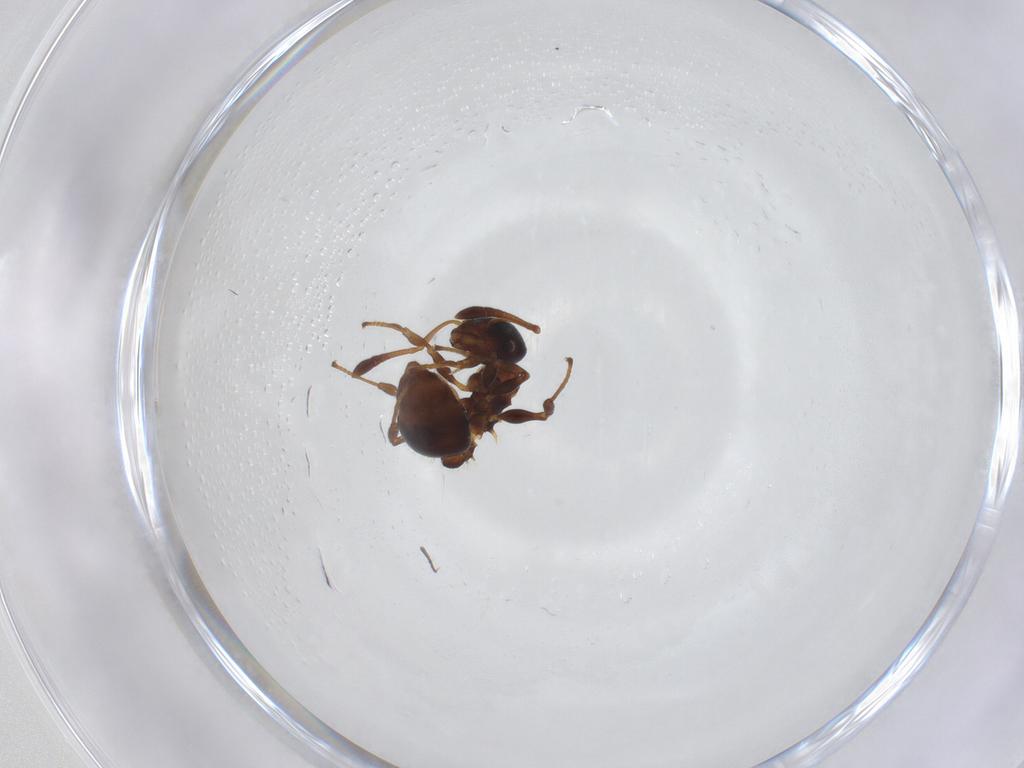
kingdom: Animalia
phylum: Arthropoda
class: Insecta
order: Hymenoptera
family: Formicidae
